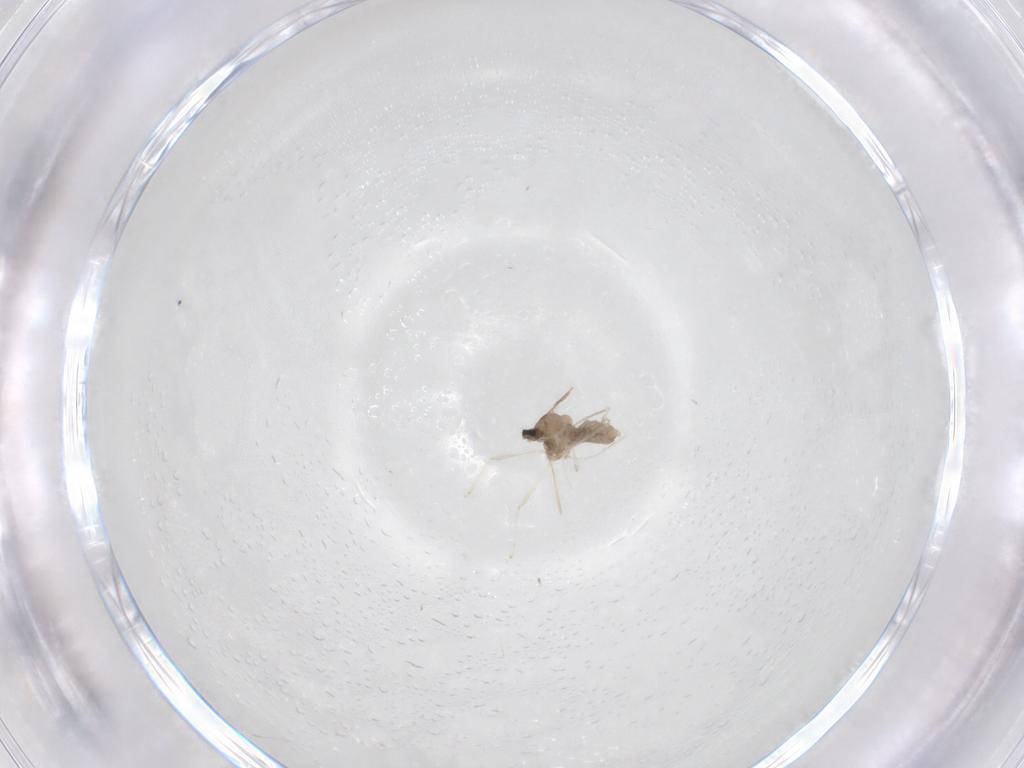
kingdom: Animalia
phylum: Arthropoda
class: Insecta
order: Diptera
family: Cecidomyiidae
